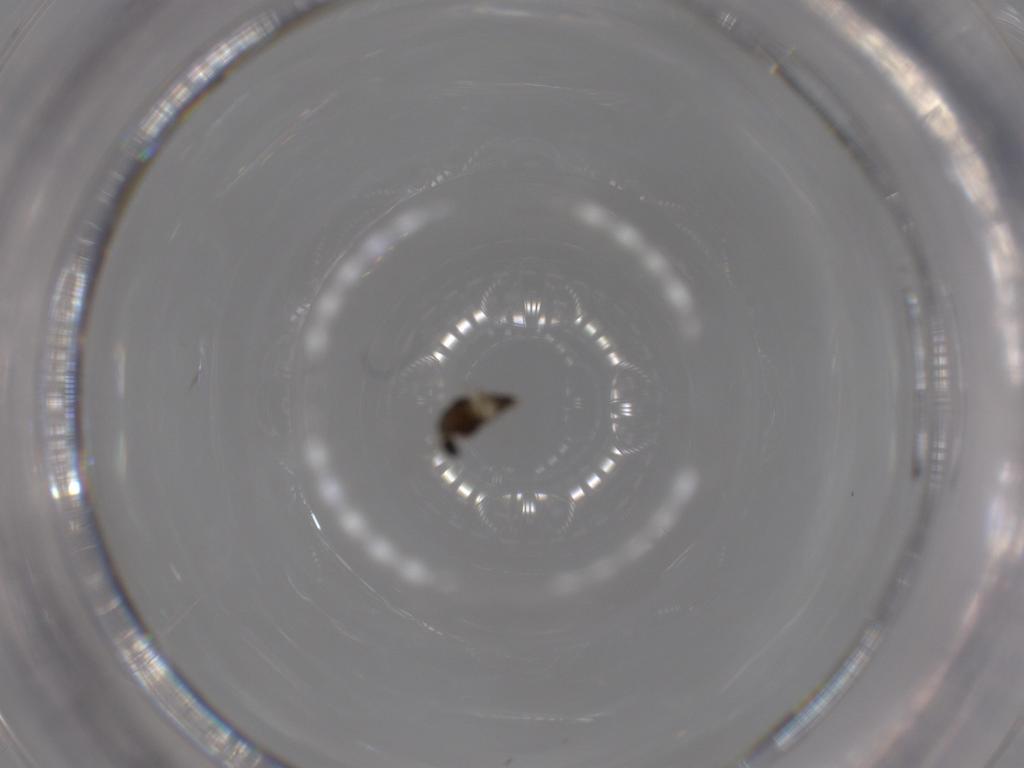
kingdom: Animalia
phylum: Arthropoda
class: Insecta
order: Diptera
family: Chironomidae
